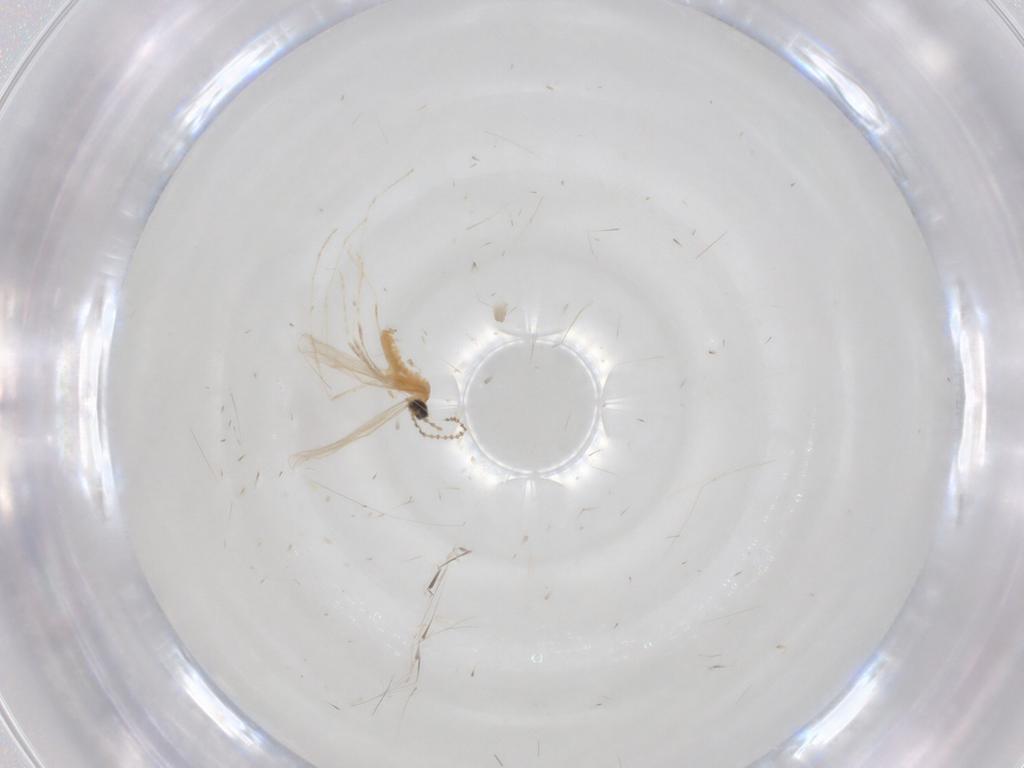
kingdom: Animalia
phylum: Arthropoda
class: Insecta
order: Diptera
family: Cecidomyiidae
